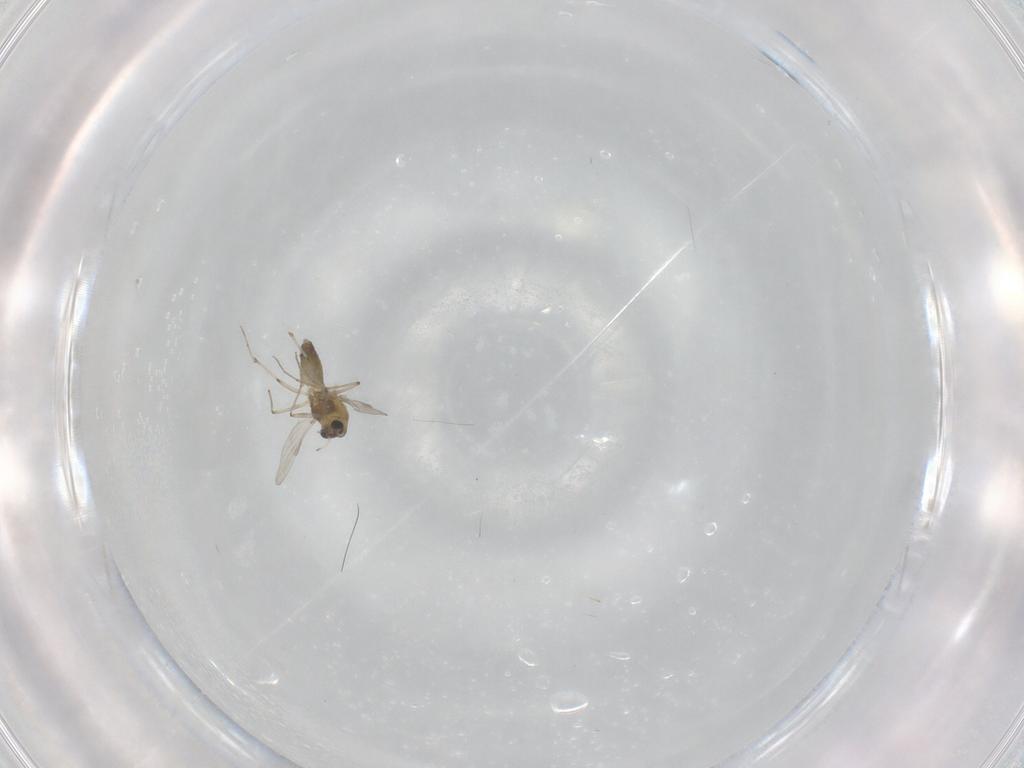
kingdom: Animalia
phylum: Arthropoda
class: Insecta
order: Diptera
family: Chironomidae
